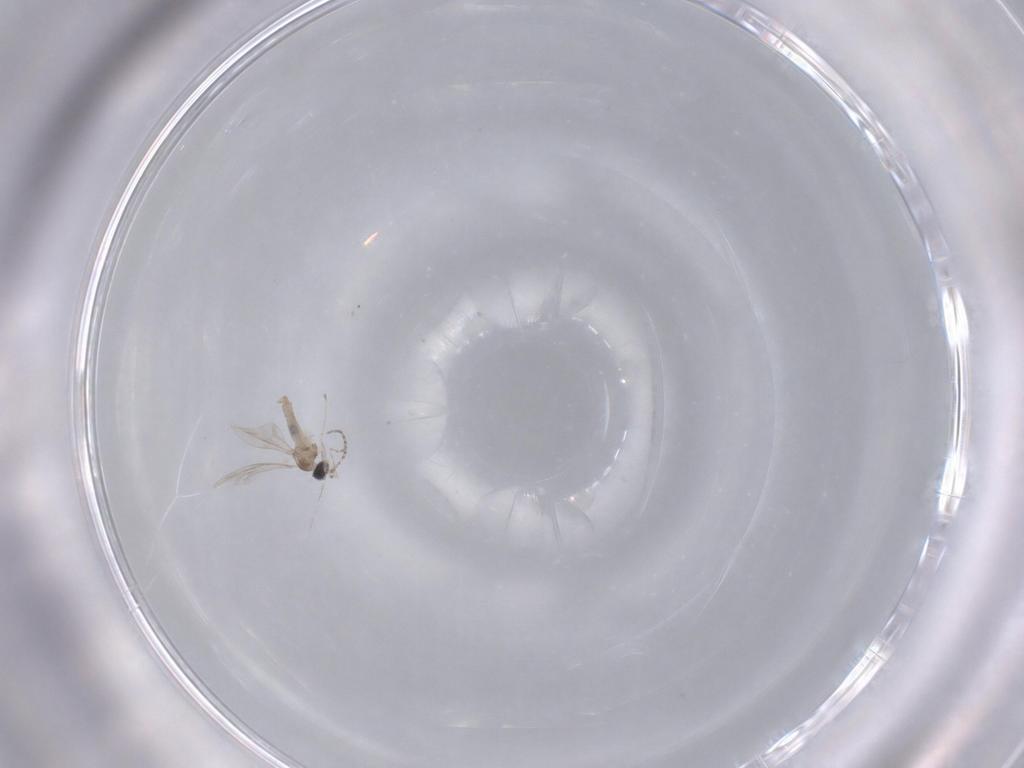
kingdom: Animalia
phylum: Arthropoda
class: Insecta
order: Diptera
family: Chironomidae
